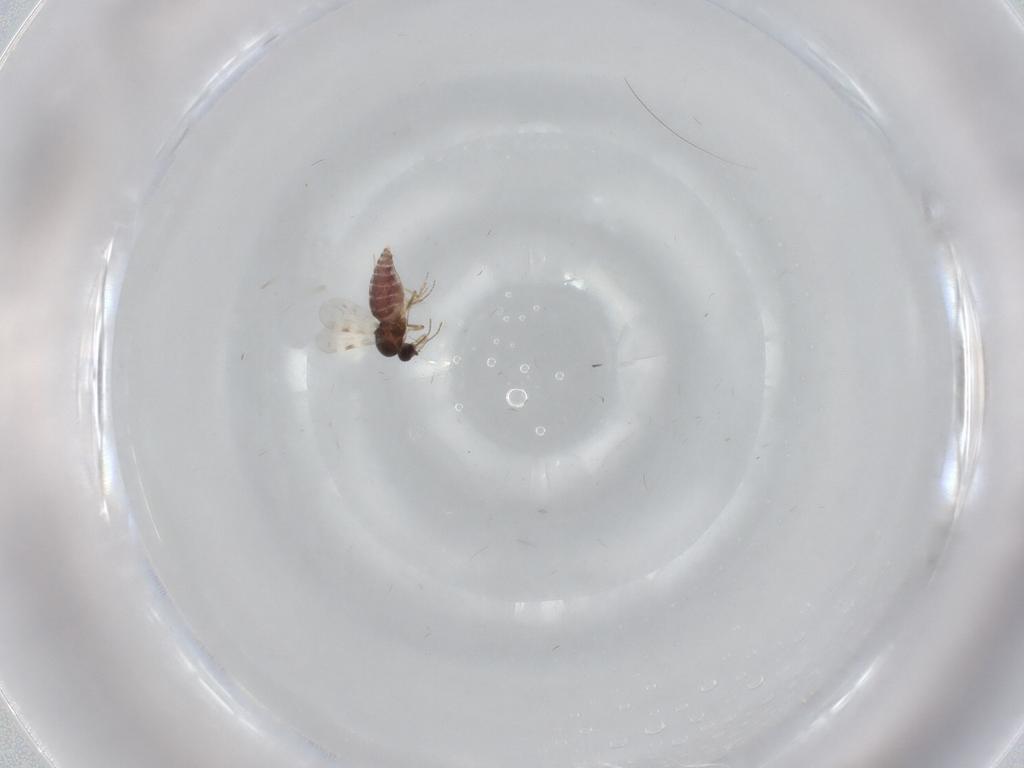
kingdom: Animalia
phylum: Arthropoda
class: Insecta
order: Diptera
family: Cecidomyiidae
